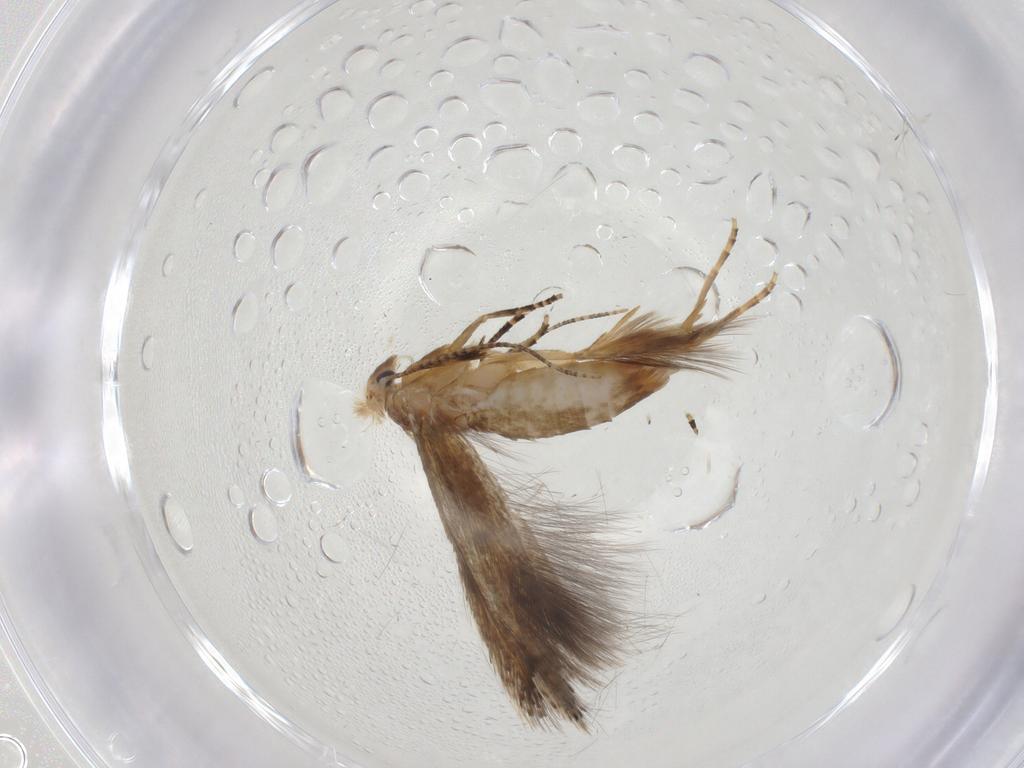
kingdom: Animalia
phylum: Arthropoda
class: Insecta
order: Lepidoptera
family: Bucculatricidae
